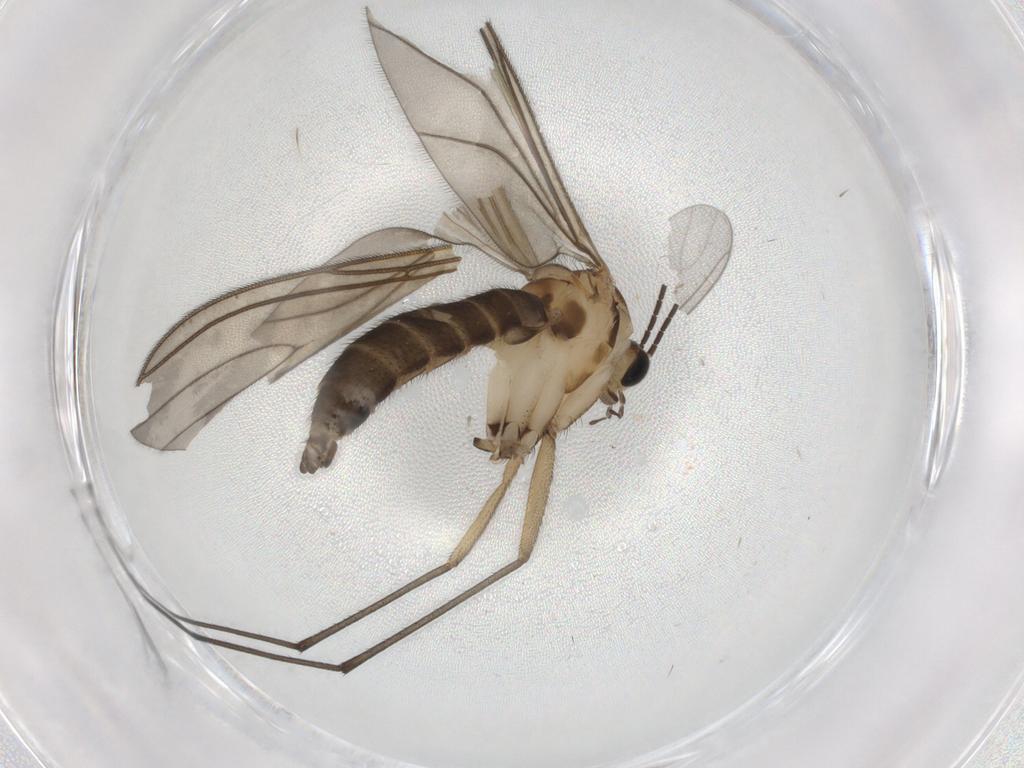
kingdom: Animalia
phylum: Arthropoda
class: Insecta
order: Diptera
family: Sciaridae
